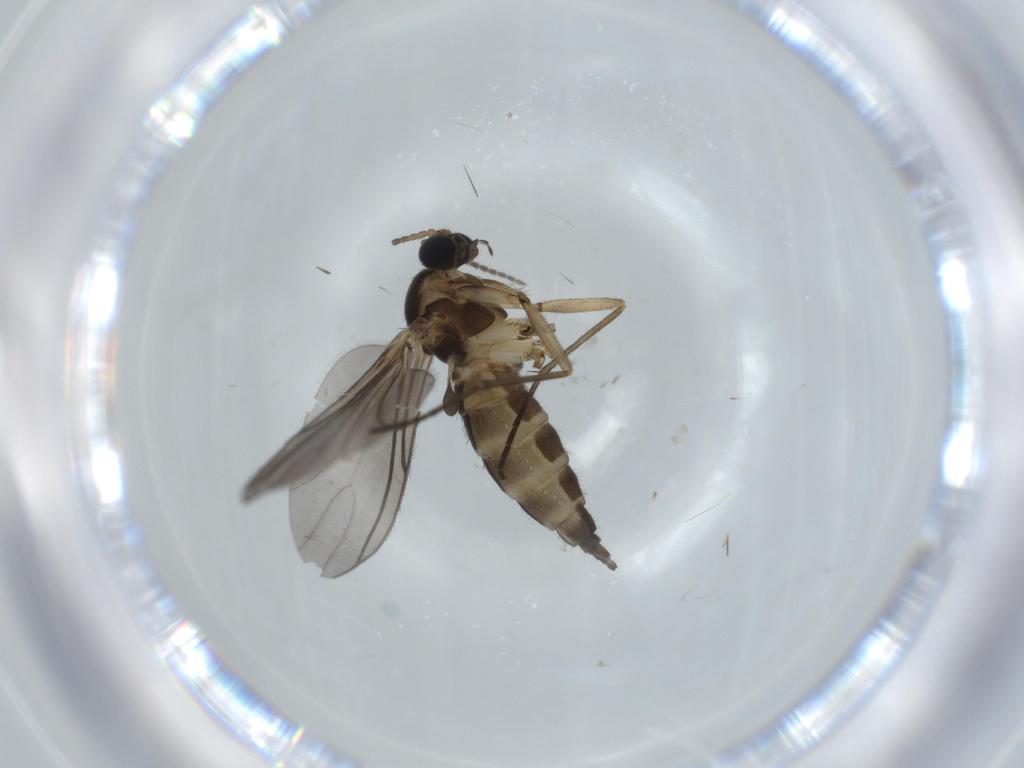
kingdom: Animalia
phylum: Arthropoda
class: Insecta
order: Diptera
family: Sciaridae
